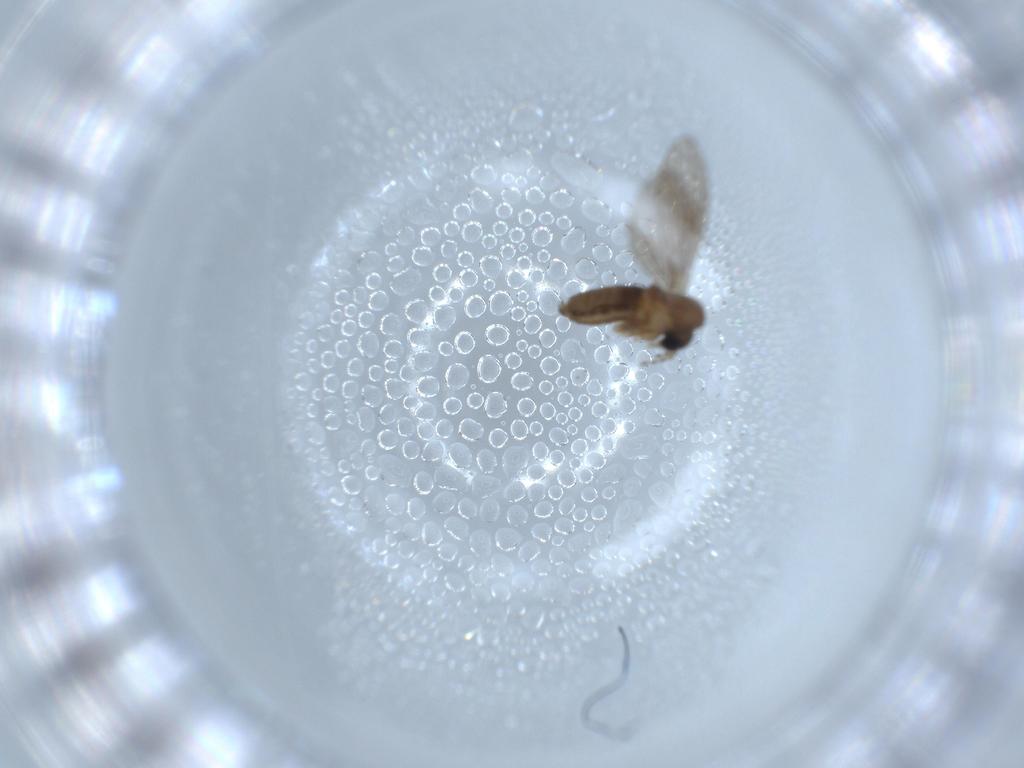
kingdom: Animalia
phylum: Arthropoda
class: Insecta
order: Diptera
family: Psychodidae
